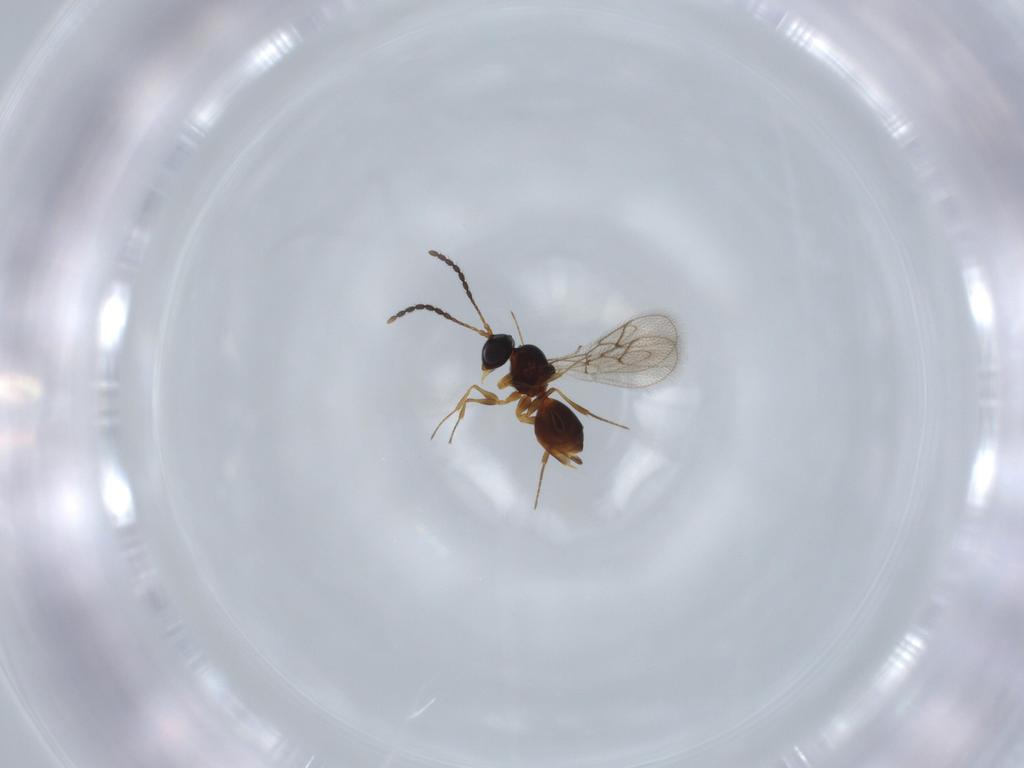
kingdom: Animalia
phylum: Arthropoda
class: Insecta
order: Hymenoptera
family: Figitidae
